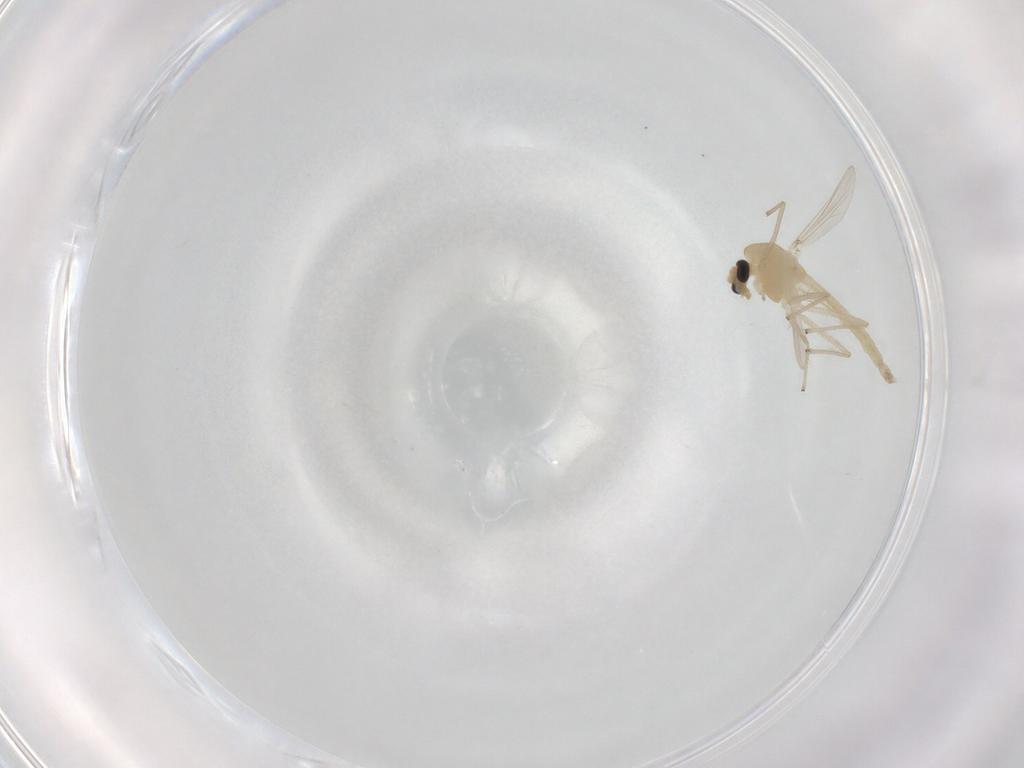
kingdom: Animalia
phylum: Arthropoda
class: Insecta
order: Diptera
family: Chironomidae
